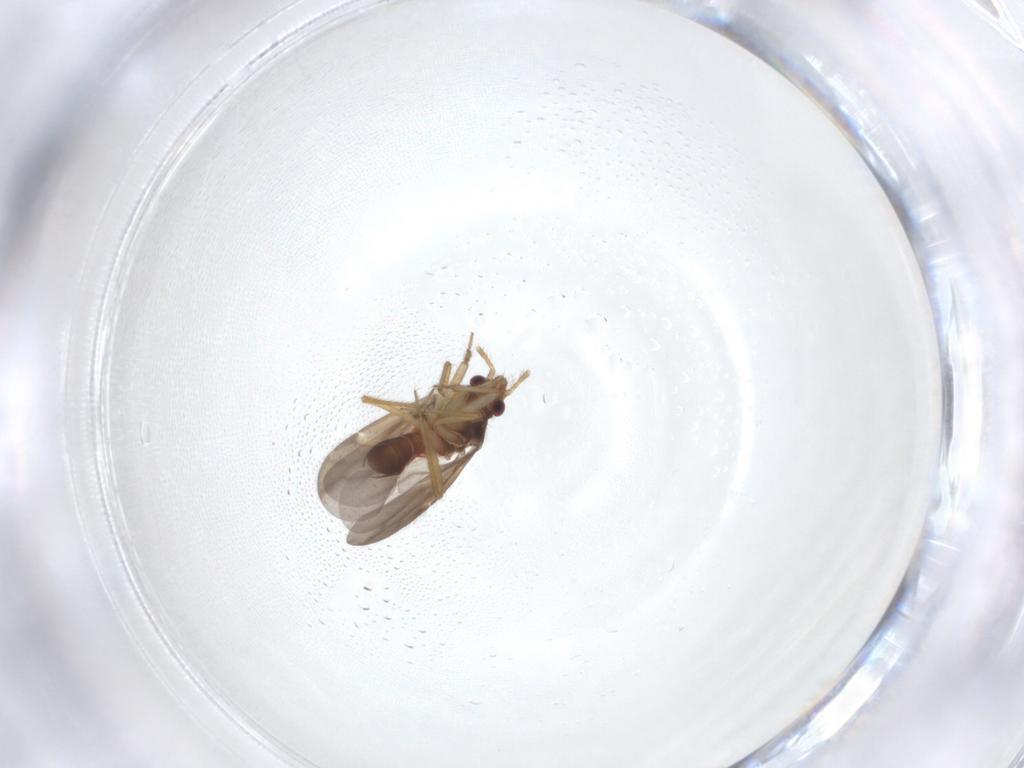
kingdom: Animalia
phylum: Arthropoda
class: Insecta
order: Hemiptera
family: Ceratocombidae
